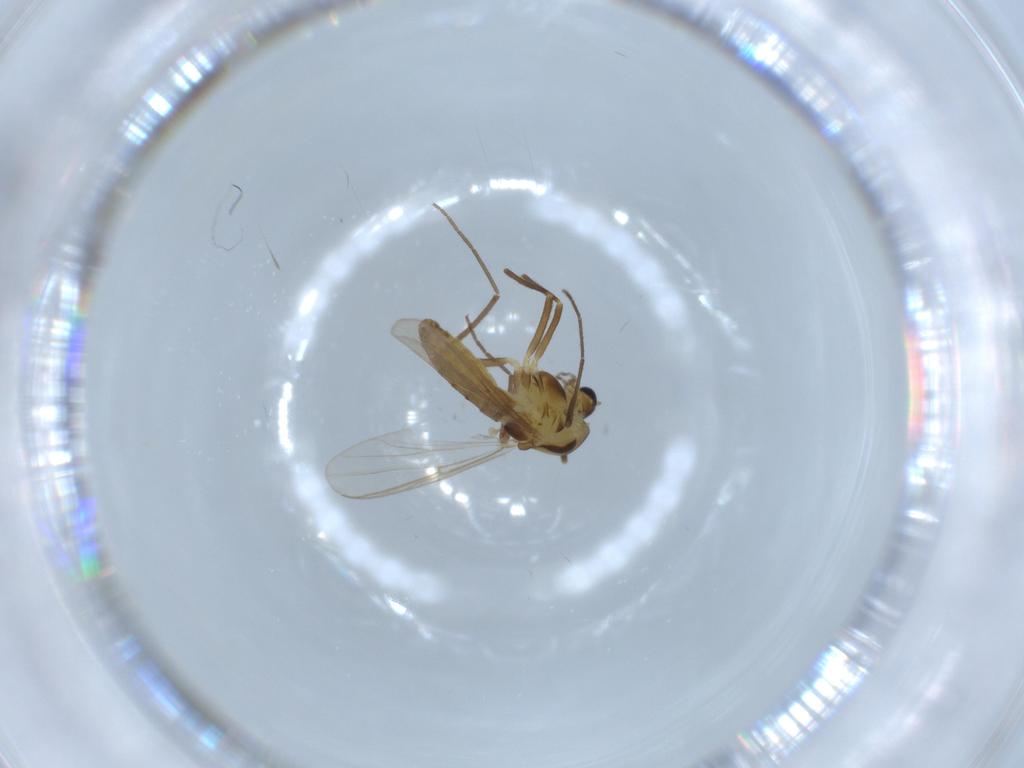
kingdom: Animalia
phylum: Arthropoda
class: Insecta
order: Diptera
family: Chironomidae
